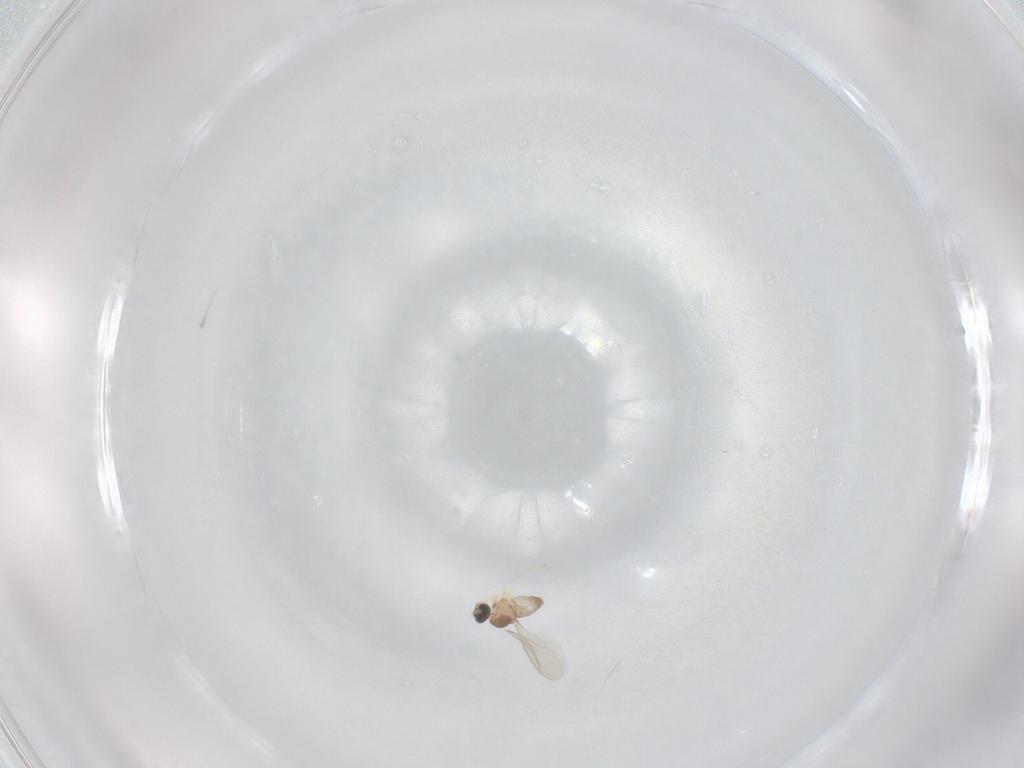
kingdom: Animalia
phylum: Arthropoda
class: Insecta
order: Diptera
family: Cecidomyiidae
